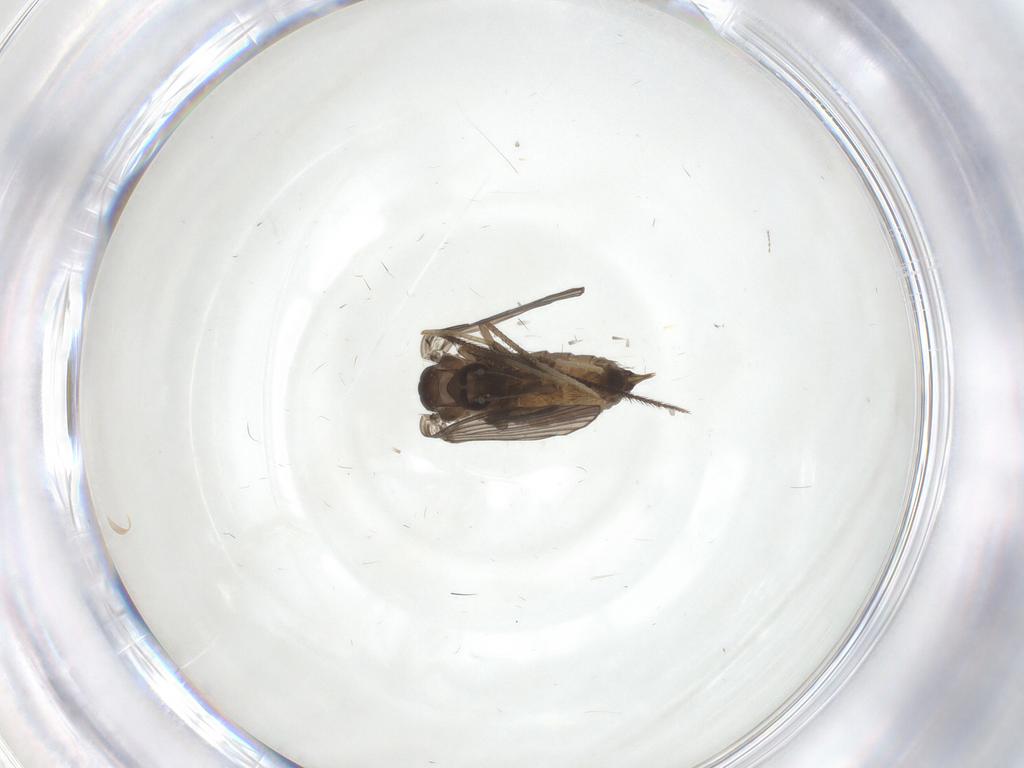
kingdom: Animalia
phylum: Arthropoda
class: Insecta
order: Diptera
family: Psychodidae
